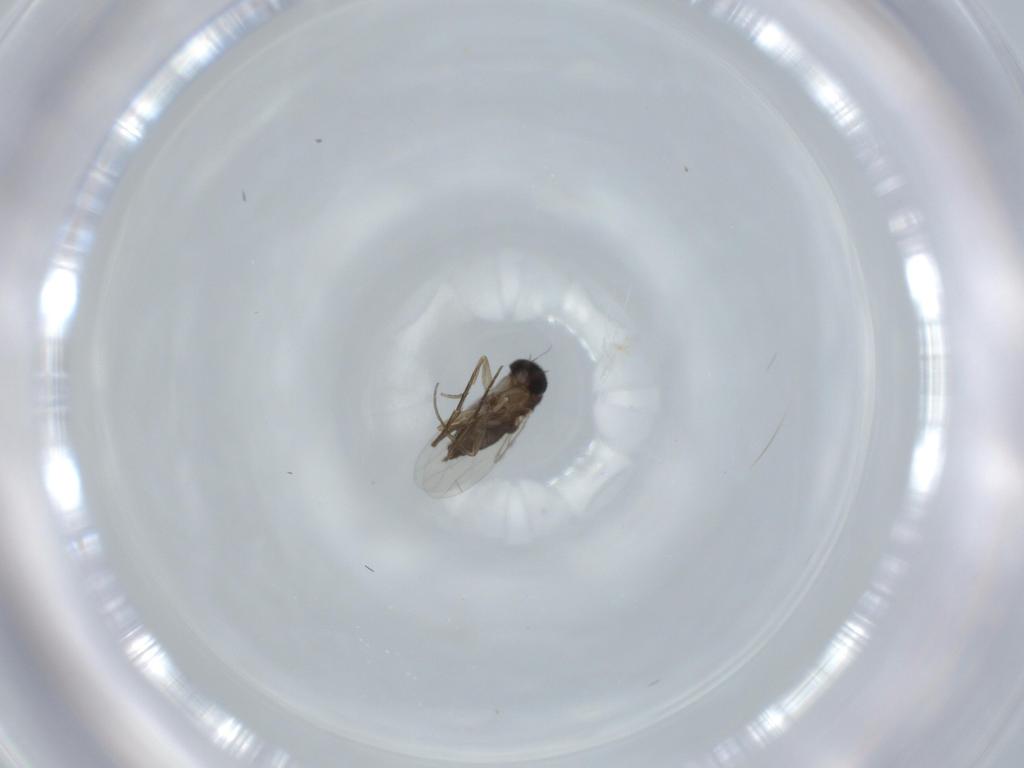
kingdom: Animalia
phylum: Arthropoda
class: Insecta
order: Diptera
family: Phoridae
